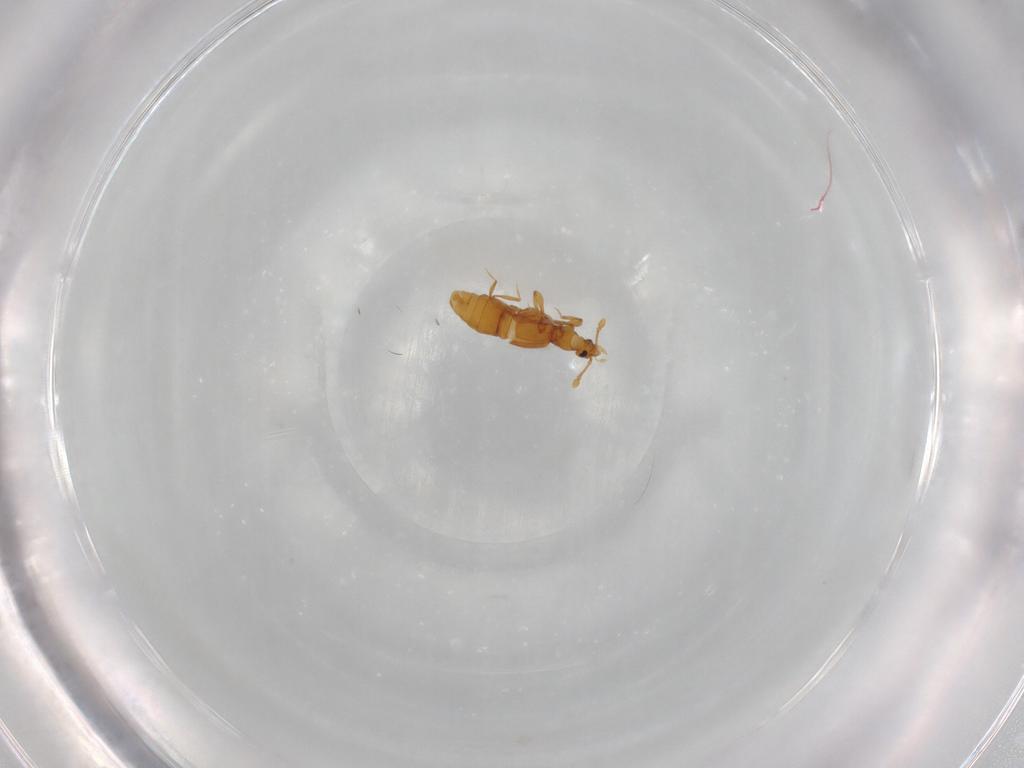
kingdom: Animalia
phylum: Arthropoda
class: Insecta
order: Coleoptera
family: Staphylinidae
